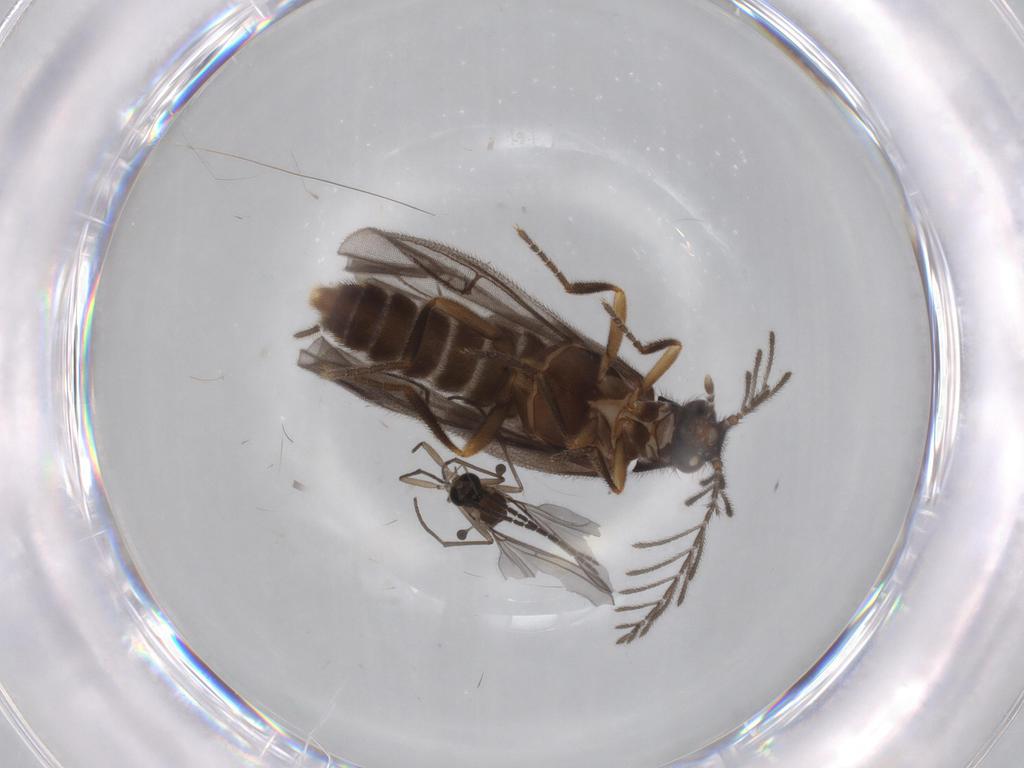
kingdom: Animalia
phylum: Arthropoda
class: Insecta
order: Diptera
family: Sciaridae
